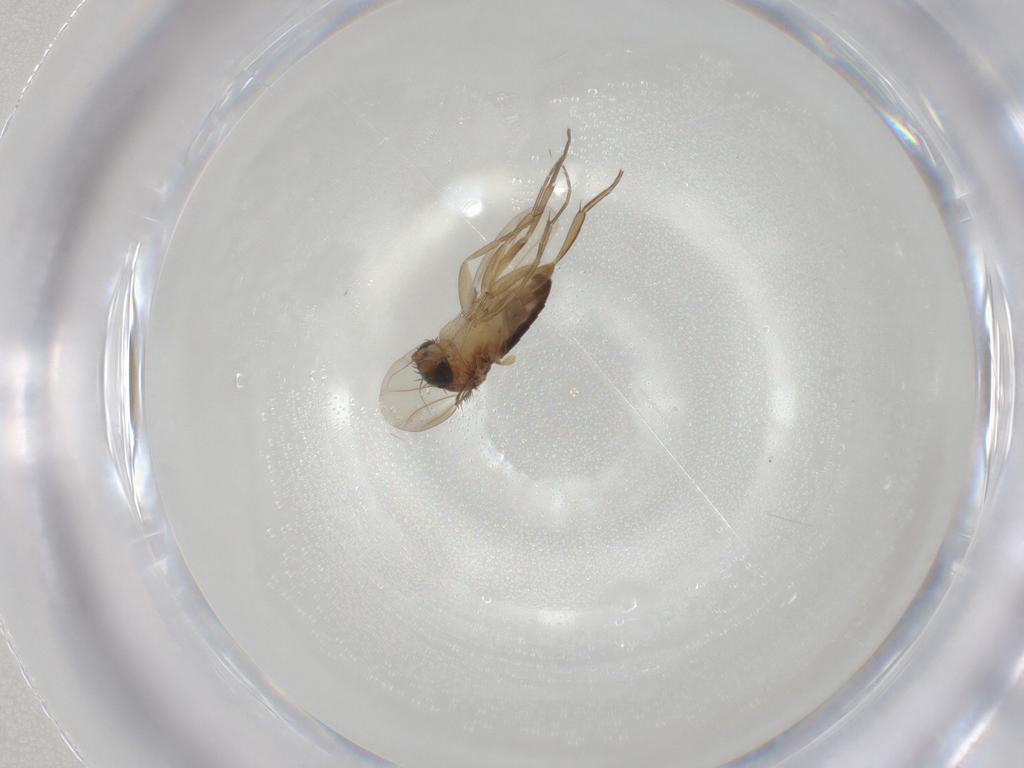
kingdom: Animalia
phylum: Arthropoda
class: Insecta
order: Diptera
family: Phoridae
